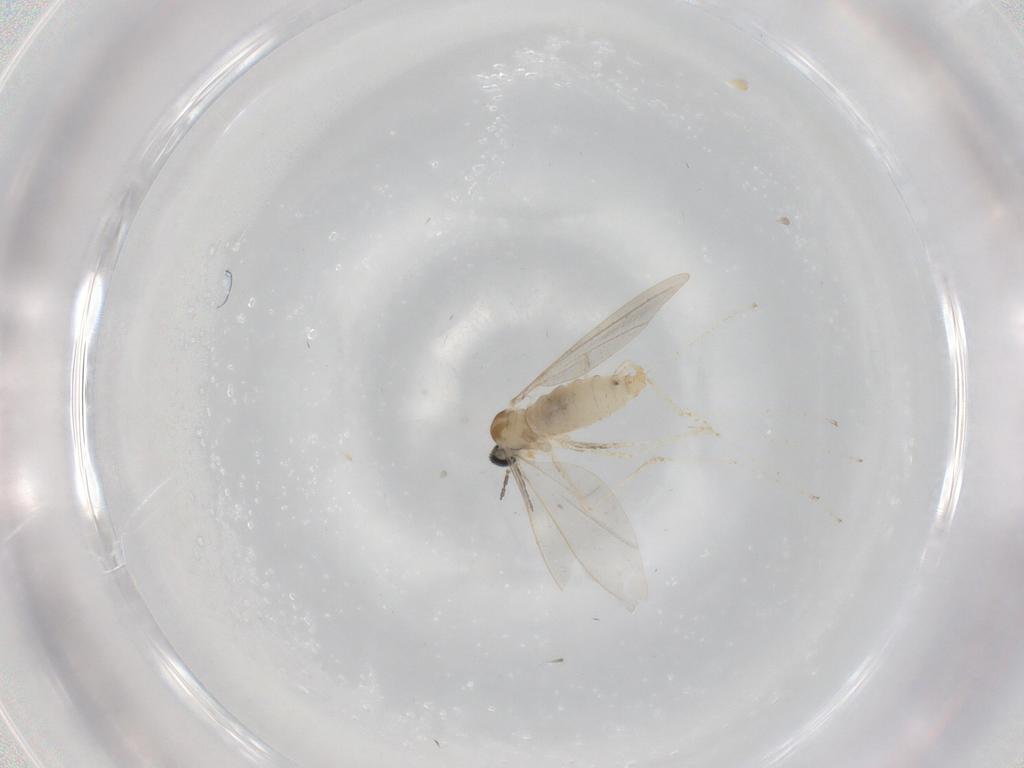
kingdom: Animalia
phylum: Arthropoda
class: Insecta
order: Diptera
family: Cecidomyiidae
